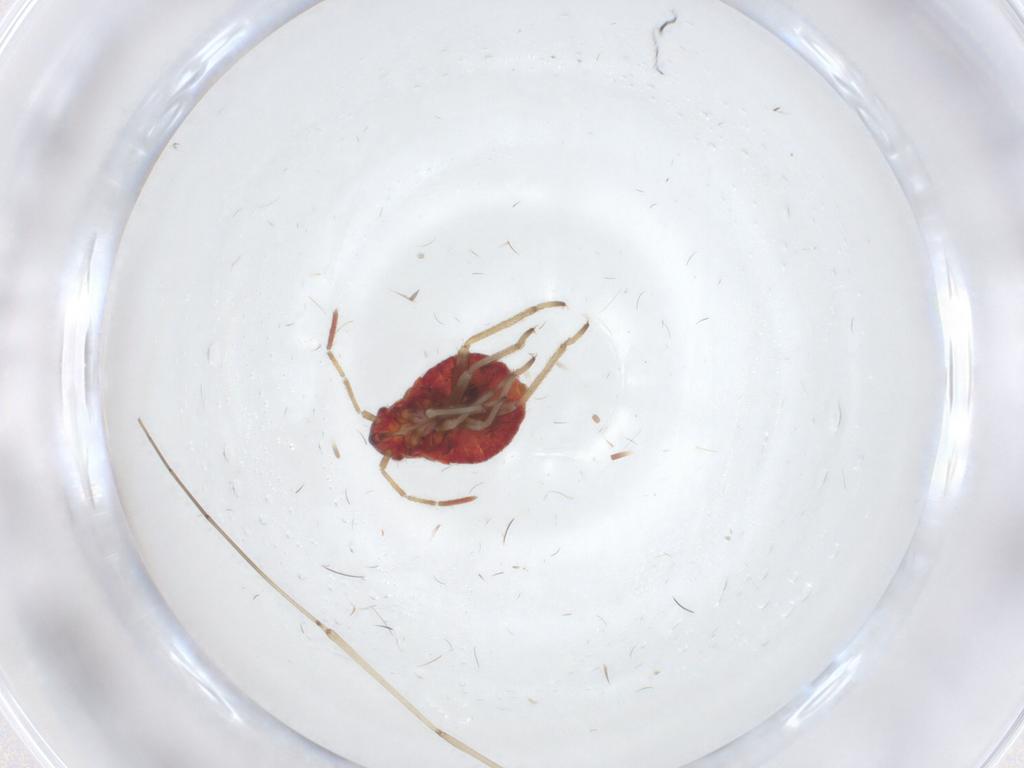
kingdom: Animalia
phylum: Arthropoda
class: Insecta
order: Hemiptera
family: Miridae
